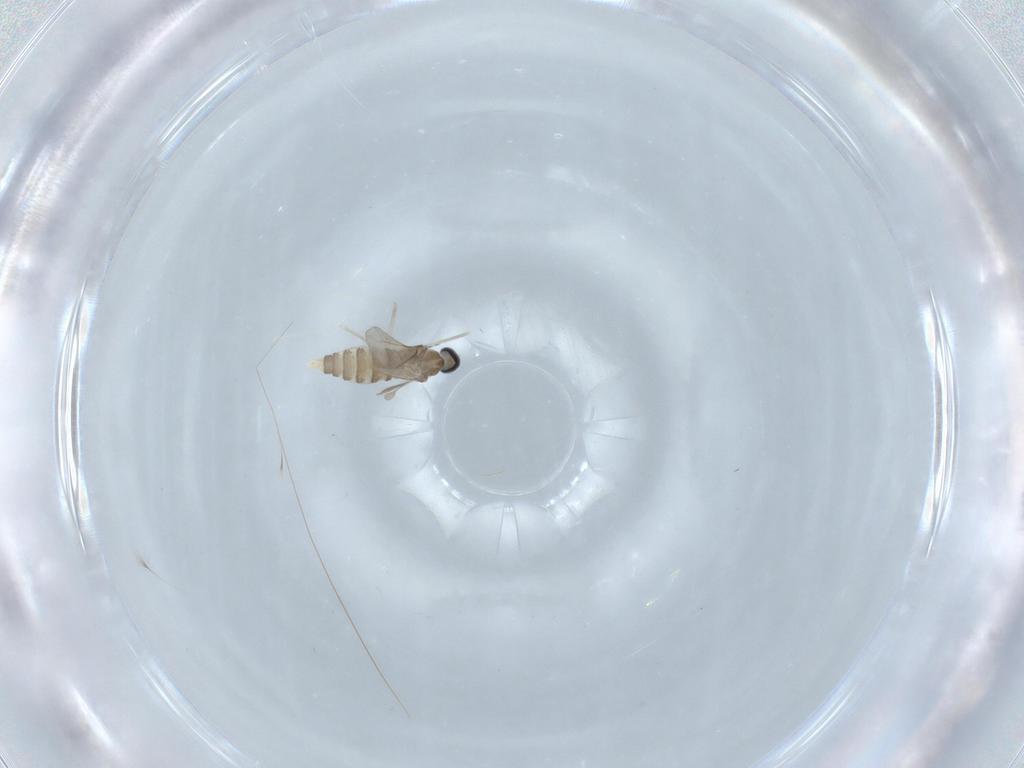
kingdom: Animalia
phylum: Arthropoda
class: Insecta
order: Diptera
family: Cecidomyiidae
